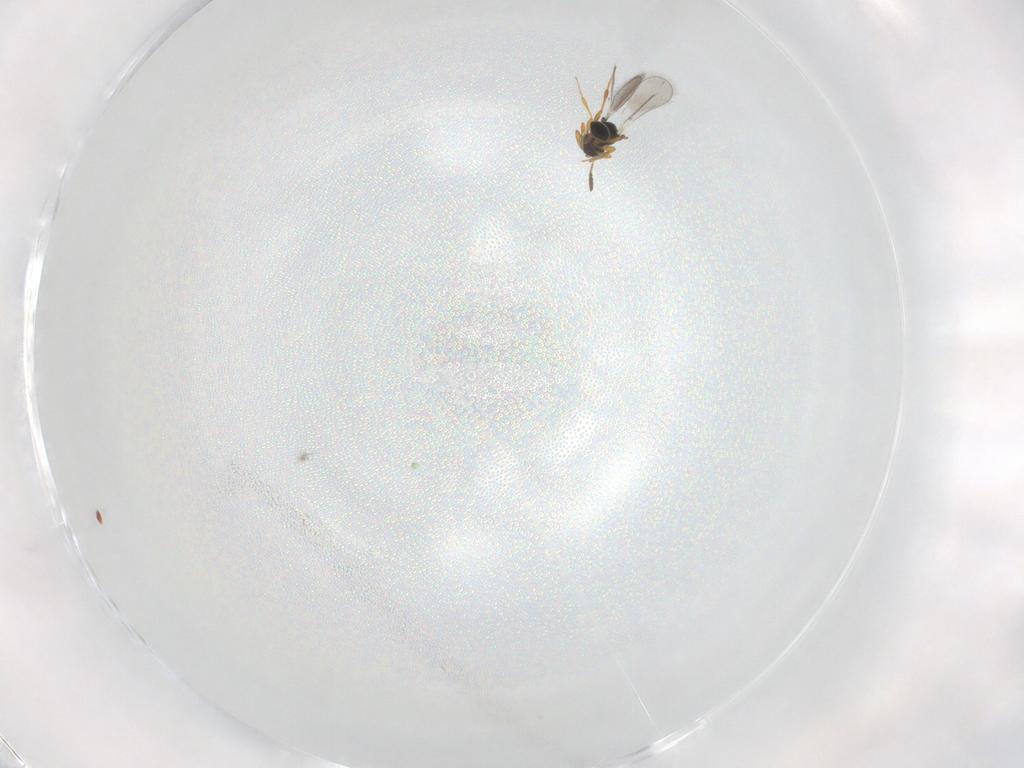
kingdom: Animalia
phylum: Arthropoda
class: Insecta
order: Hymenoptera
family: Platygastridae
